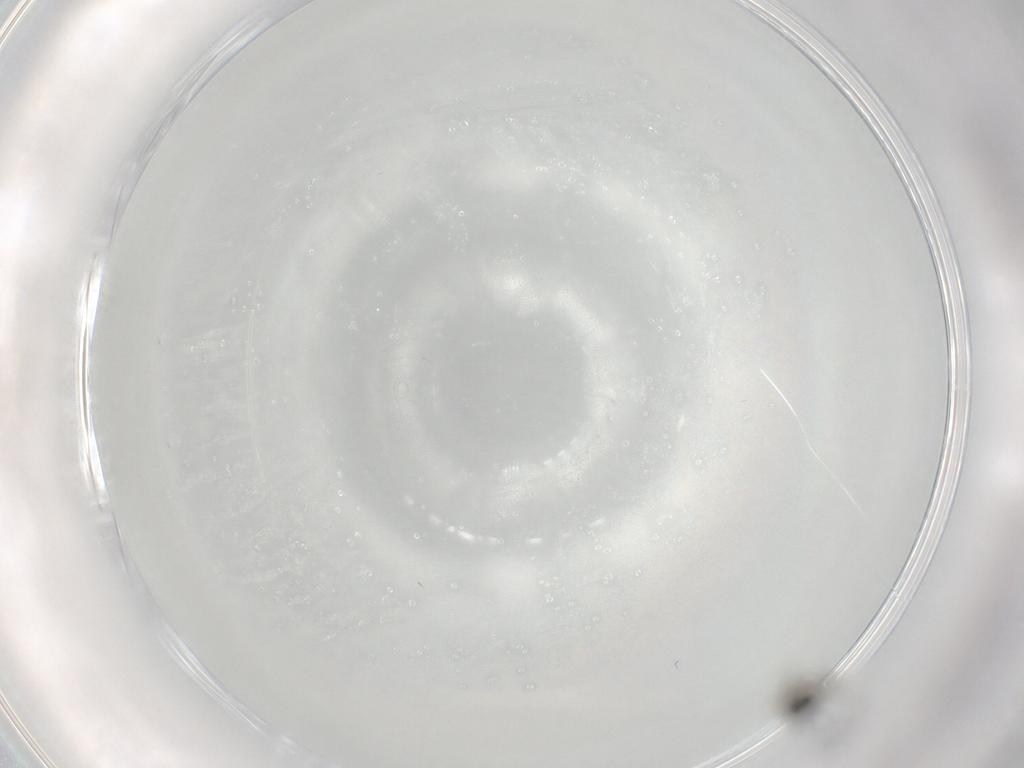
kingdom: Animalia
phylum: Arthropoda
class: Insecta
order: Hymenoptera
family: Scelionidae
